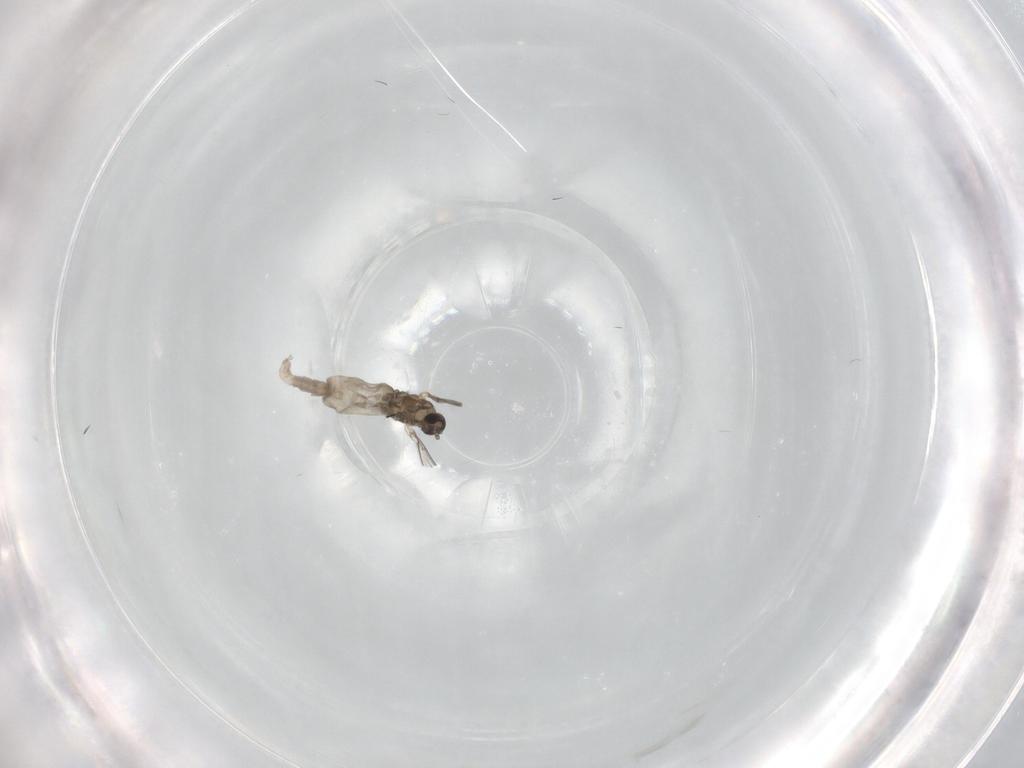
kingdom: Animalia
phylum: Arthropoda
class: Insecta
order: Diptera
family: Cecidomyiidae
